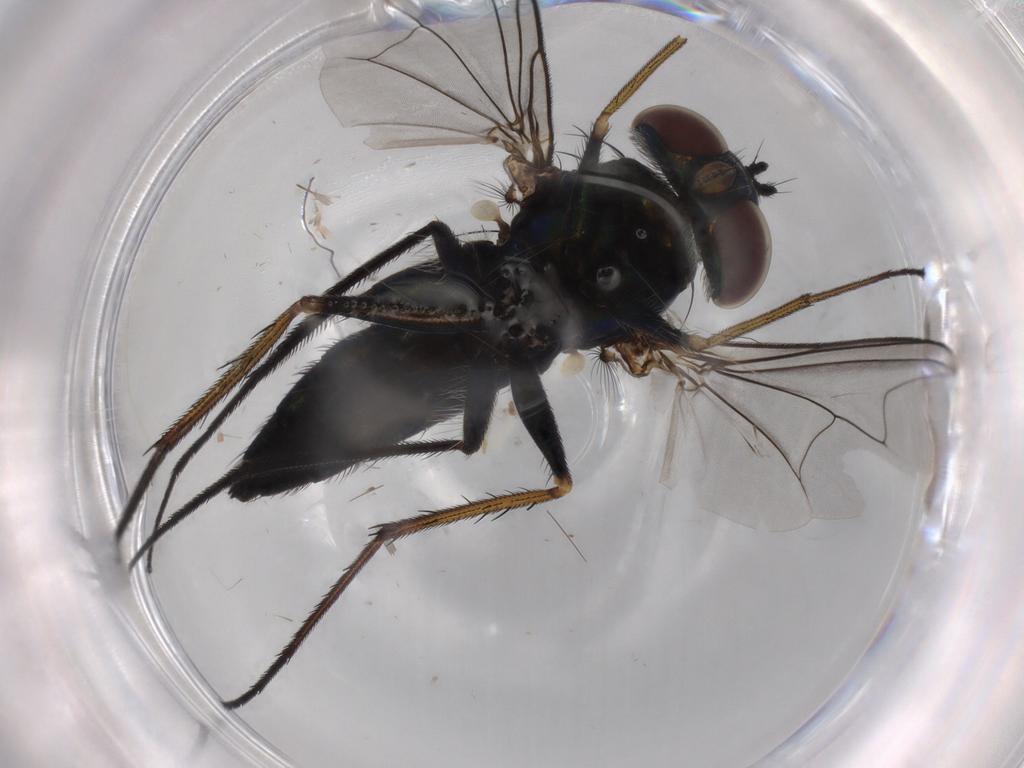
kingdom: Animalia
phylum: Arthropoda
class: Insecta
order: Diptera
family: Dolichopodidae
